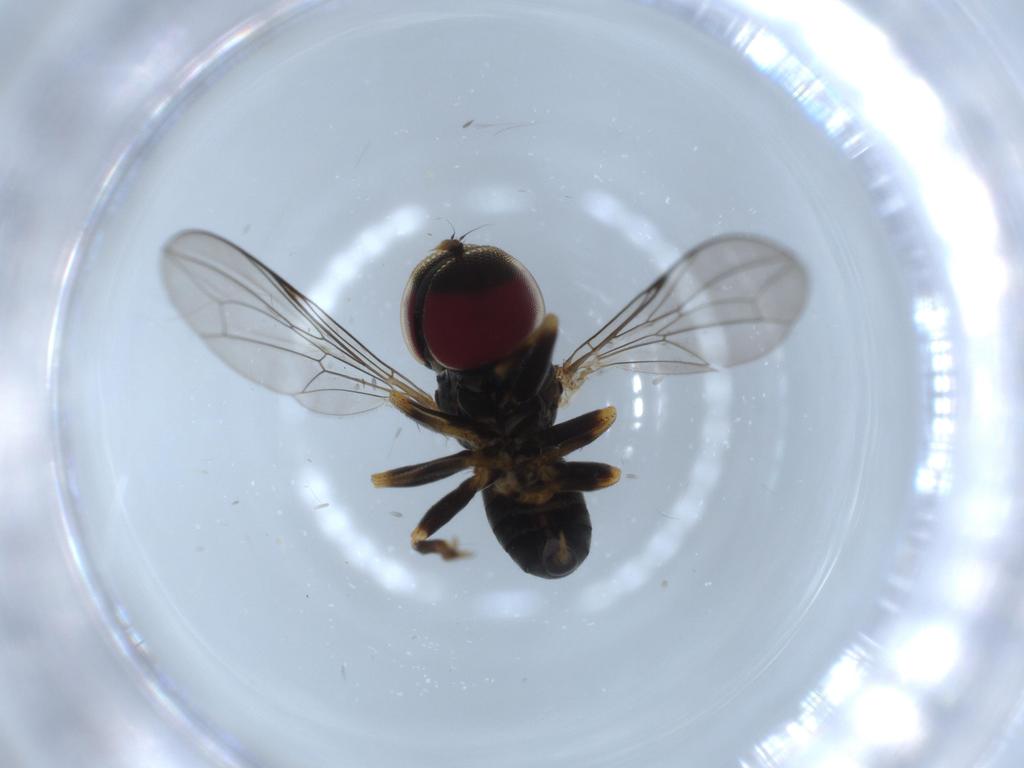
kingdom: Animalia
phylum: Arthropoda
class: Insecta
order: Diptera
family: Pipunculidae
